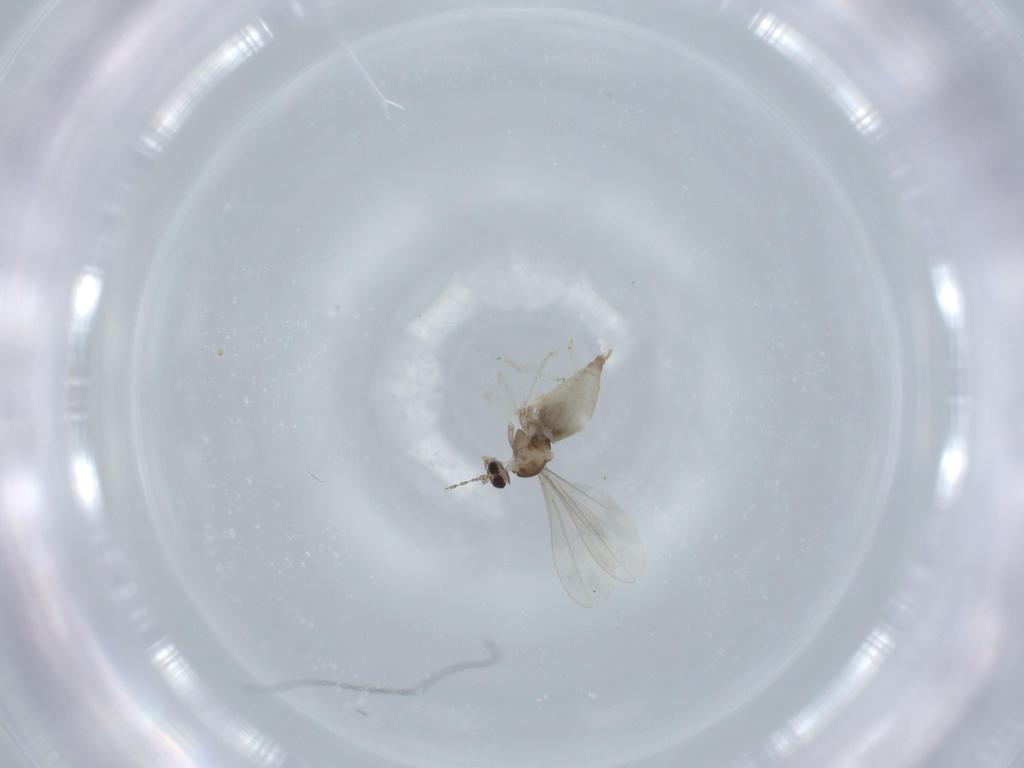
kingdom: Animalia
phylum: Arthropoda
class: Insecta
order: Diptera
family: Cecidomyiidae
